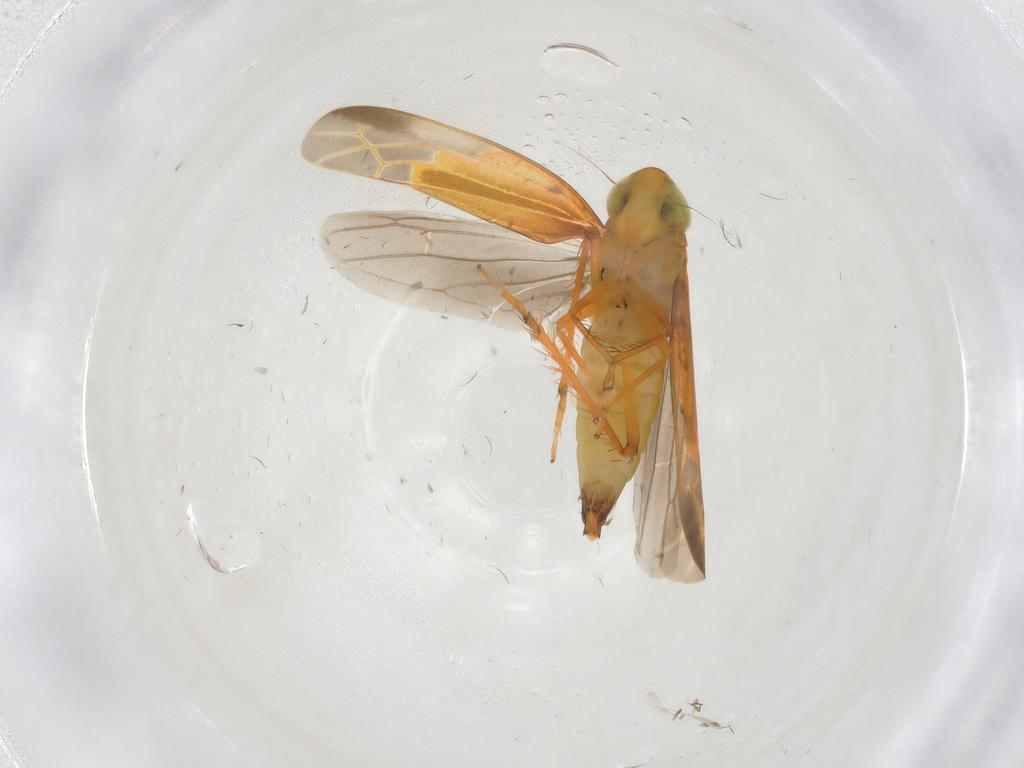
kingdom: Animalia
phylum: Arthropoda
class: Insecta
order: Hemiptera
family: Cicadellidae
